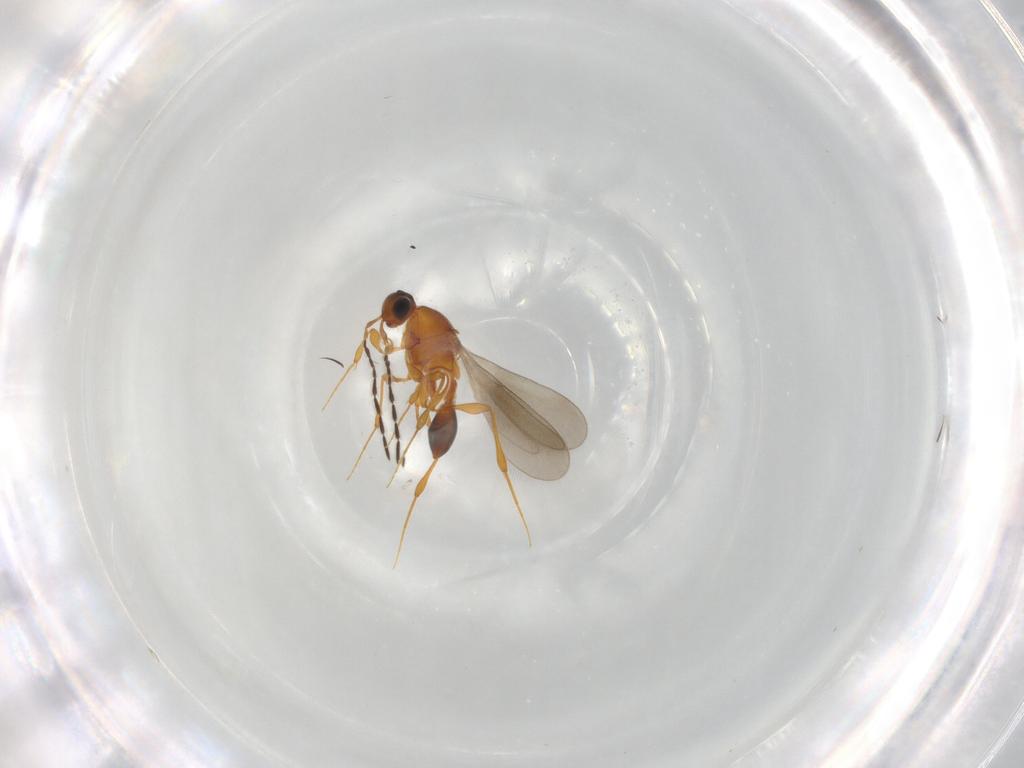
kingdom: Animalia
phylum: Arthropoda
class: Insecta
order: Hymenoptera
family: Platygastridae
